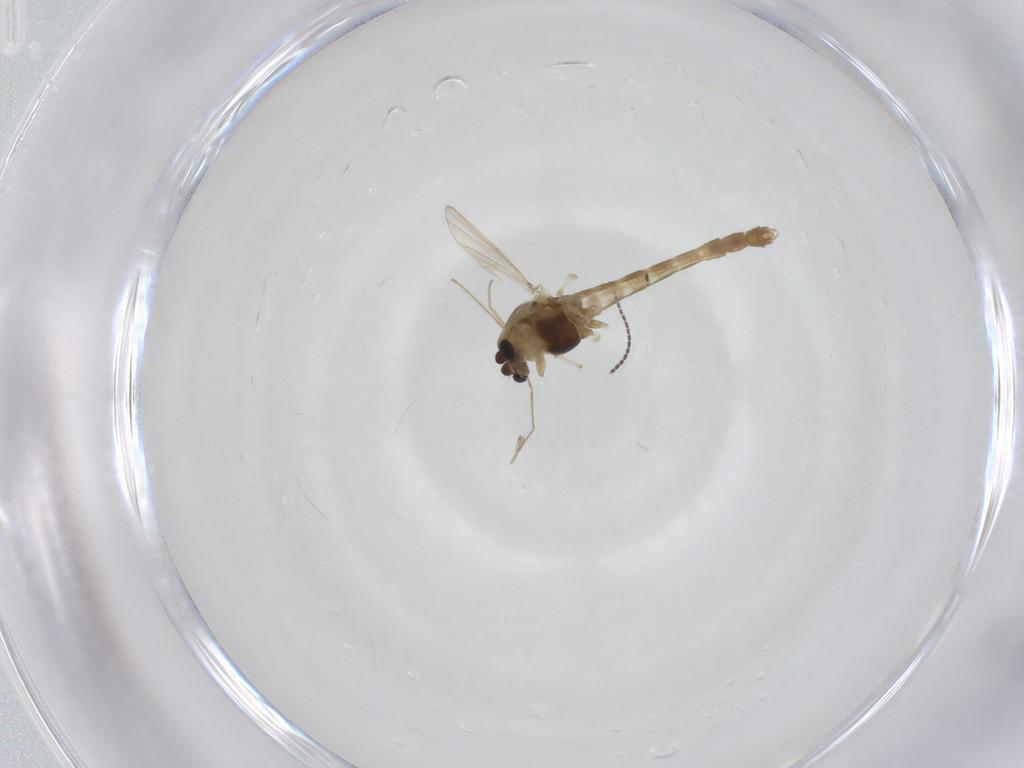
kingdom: Animalia
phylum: Arthropoda
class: Insecta
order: Diptera
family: Chironomidae
